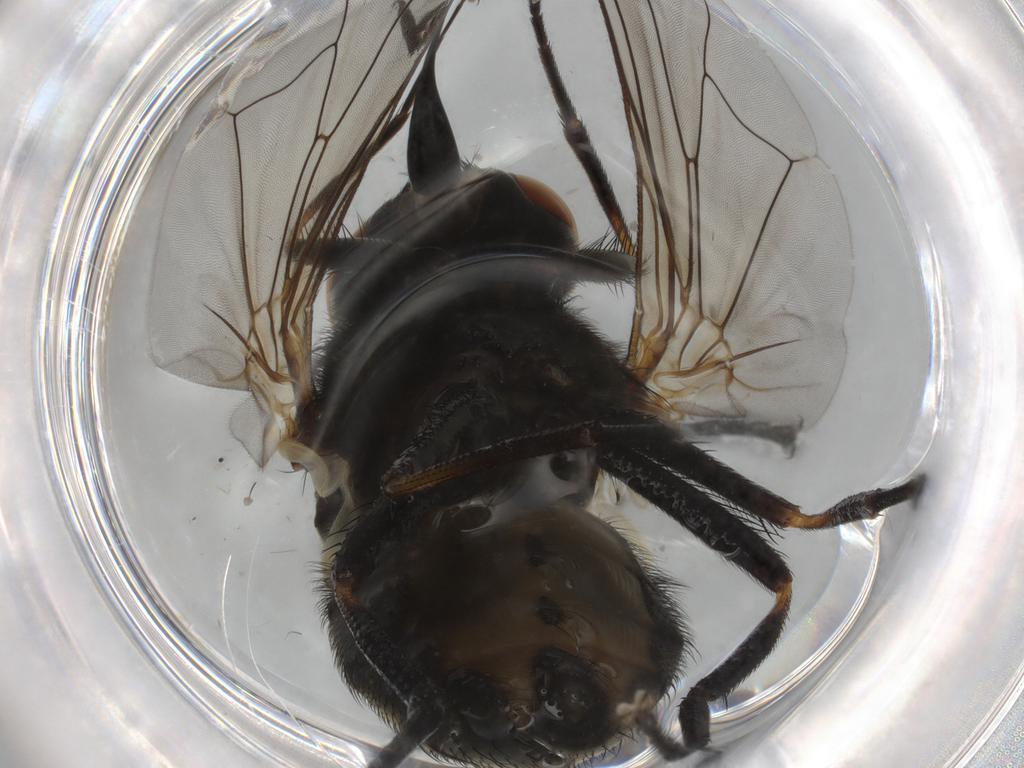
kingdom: Animalia
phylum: Arthropoda
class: Insecta
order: Diptera
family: Muscidae
